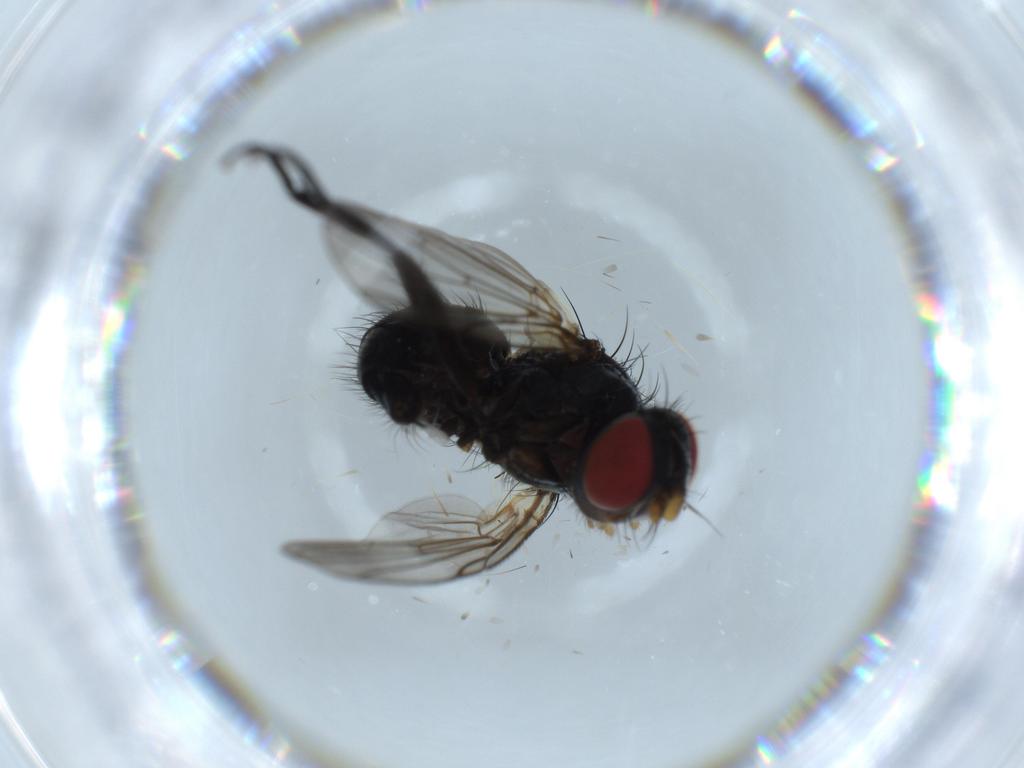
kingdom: Animalia
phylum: Arthropoda
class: Insecta
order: Diptera
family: Tachinidae
